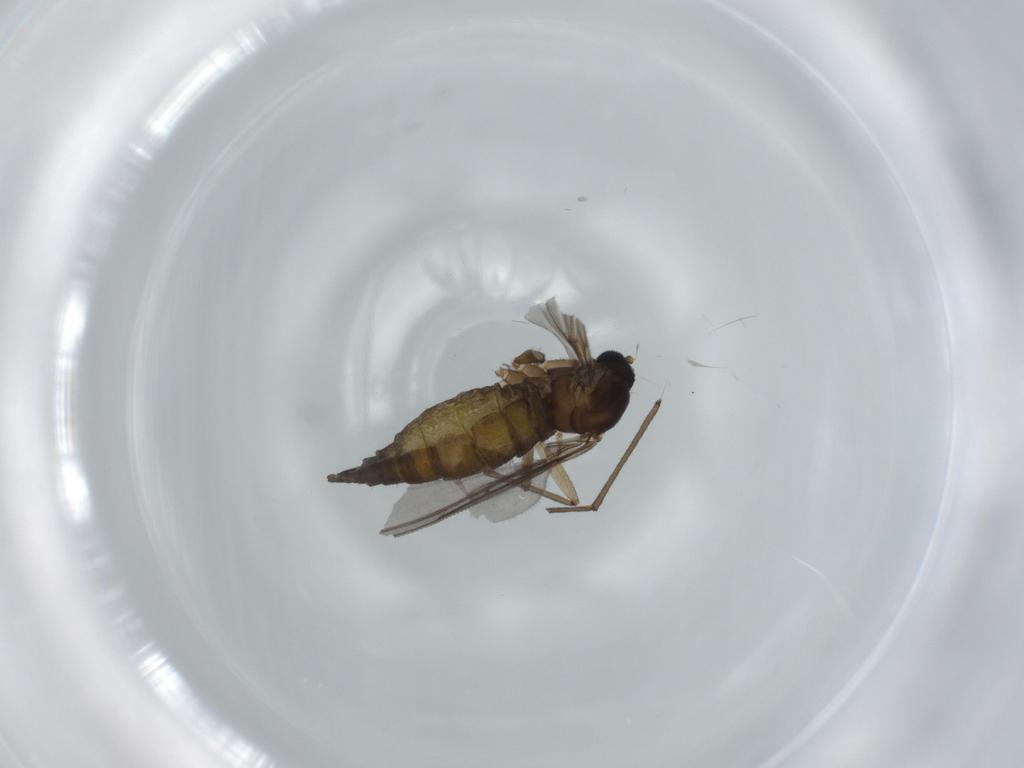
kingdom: Animalia
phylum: Arthropoda
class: Insecta
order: Diptera
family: Sciaridae
